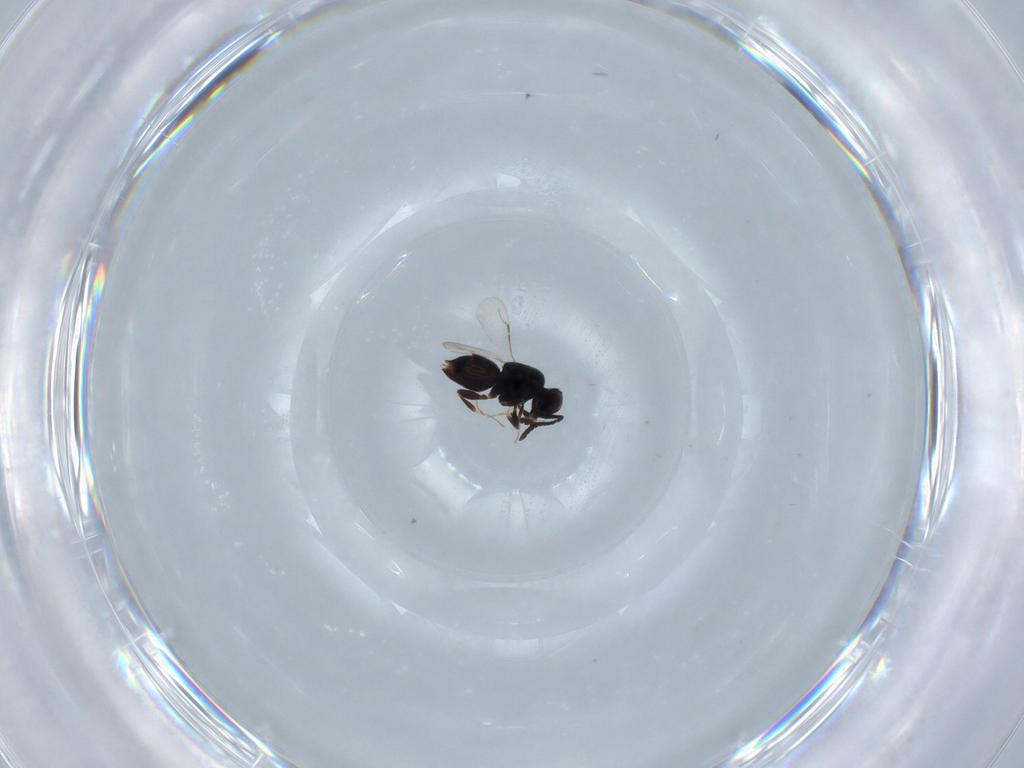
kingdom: Animalia
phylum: Arthropoda
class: Insecta
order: Hymenoptera
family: Ceraphronidae
